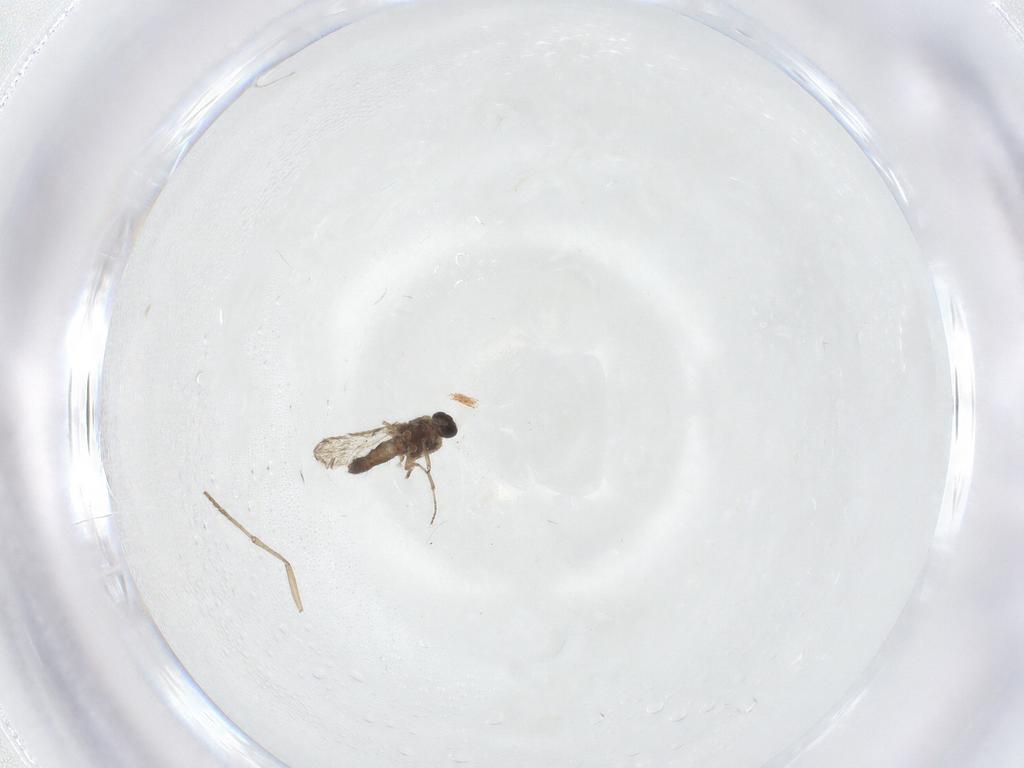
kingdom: Animalia
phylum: Arthropoda
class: Insecta
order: Diptera
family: Psychodidae
